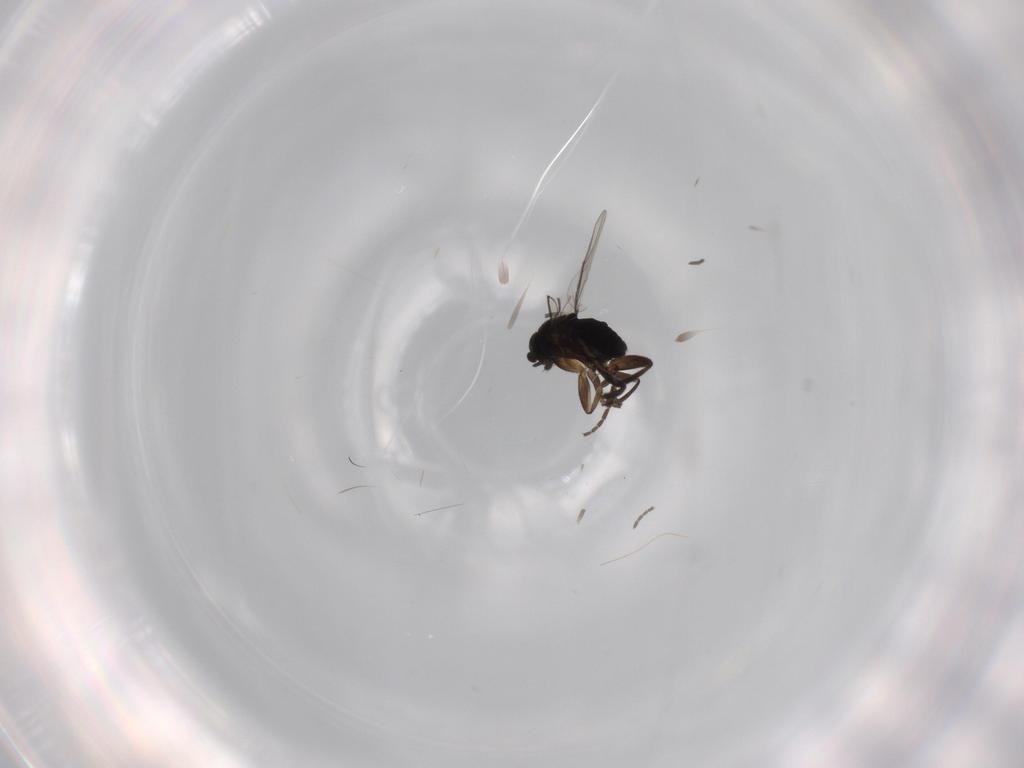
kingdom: Animalia
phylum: Arthropoda
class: Insecta
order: Diptera
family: Phoridae
